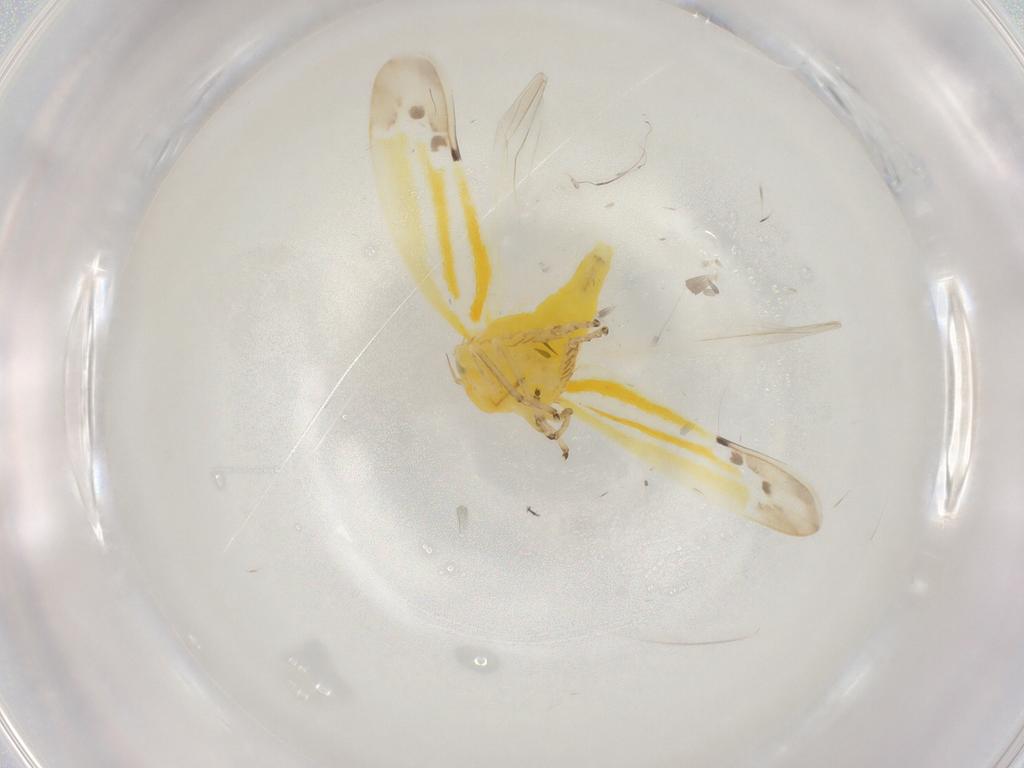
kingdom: Animalia
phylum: Arthropoda
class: Insecta
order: Hemiptera
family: Cicadellidae
